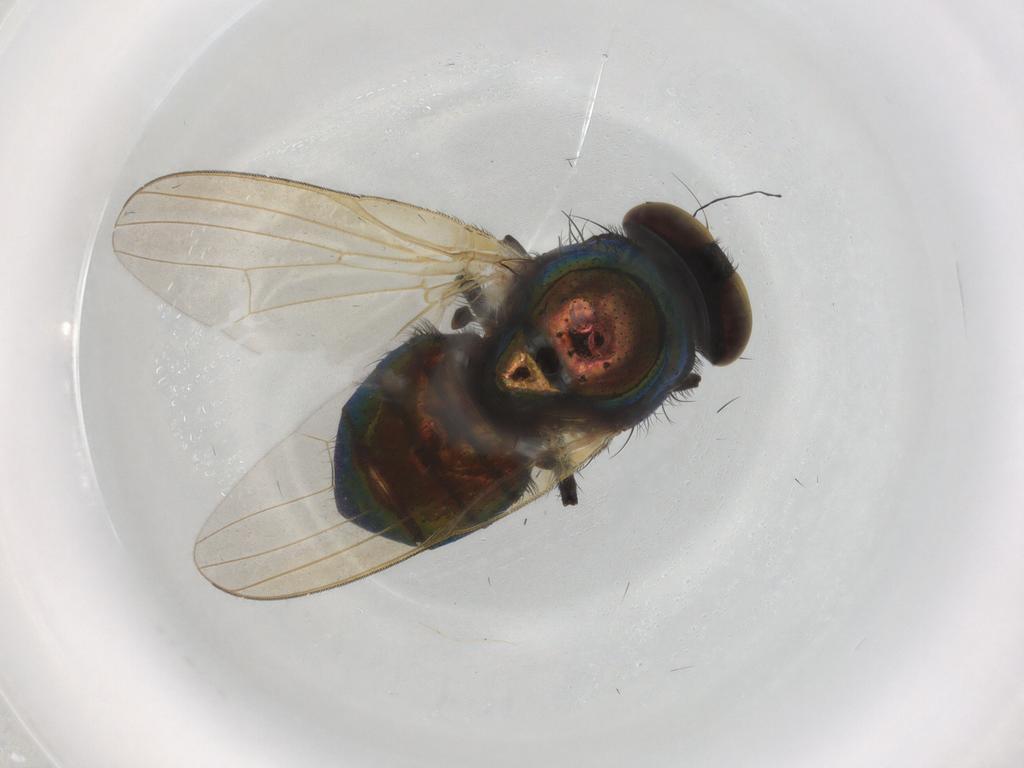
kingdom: Animalia
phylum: Arthropoda
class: Insecta
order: Diptera
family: Lonchaeidae
